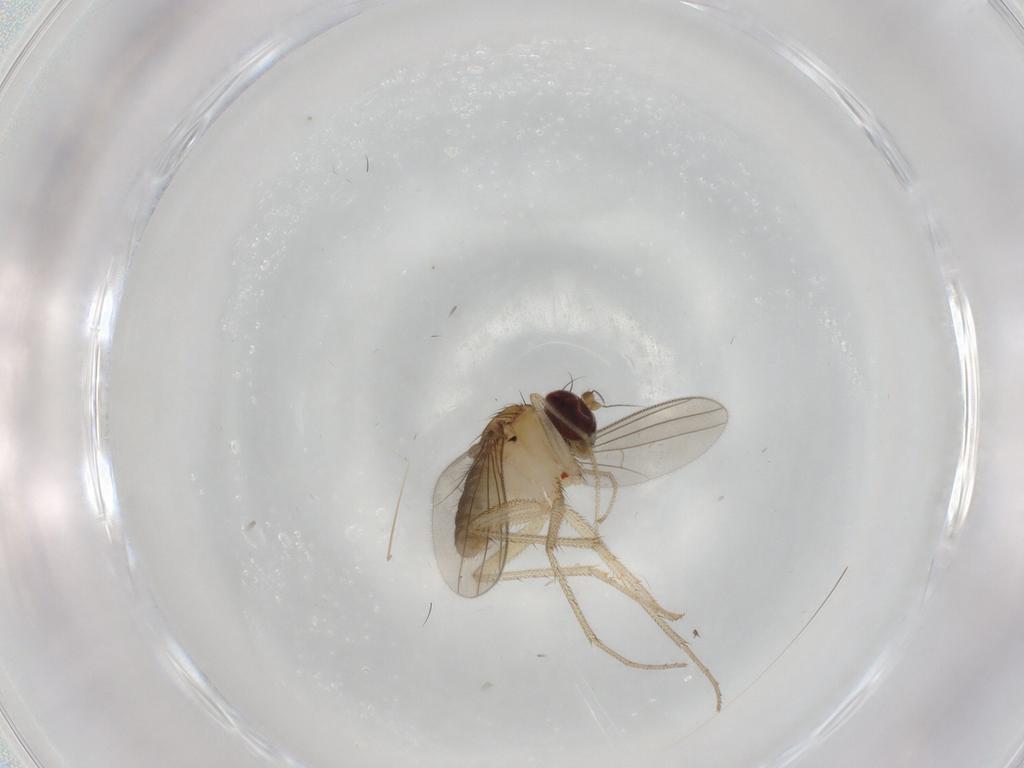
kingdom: Animalia
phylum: Arthropoda
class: Insecta
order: Diptera
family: Dolichopodidae
